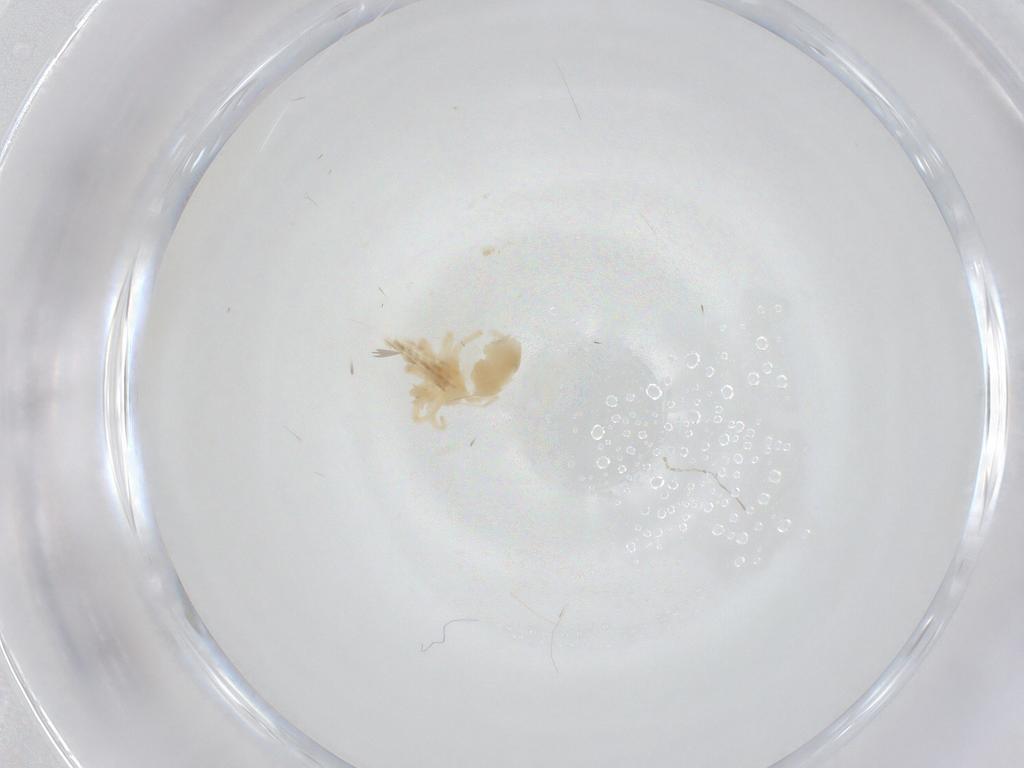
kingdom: Animalia
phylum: Arthropoda
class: Arachnida
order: Trombidiformes
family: Anystidae
